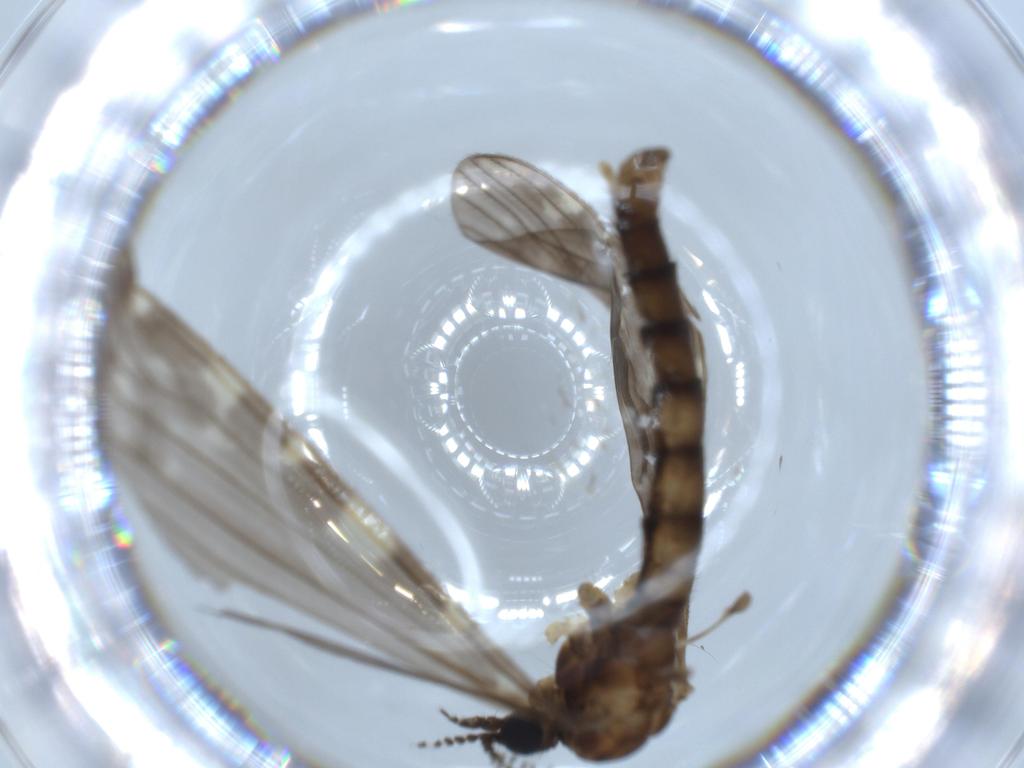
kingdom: Animalia
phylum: Arthropoda
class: Insecta
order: Diptera
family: Limoniidae
